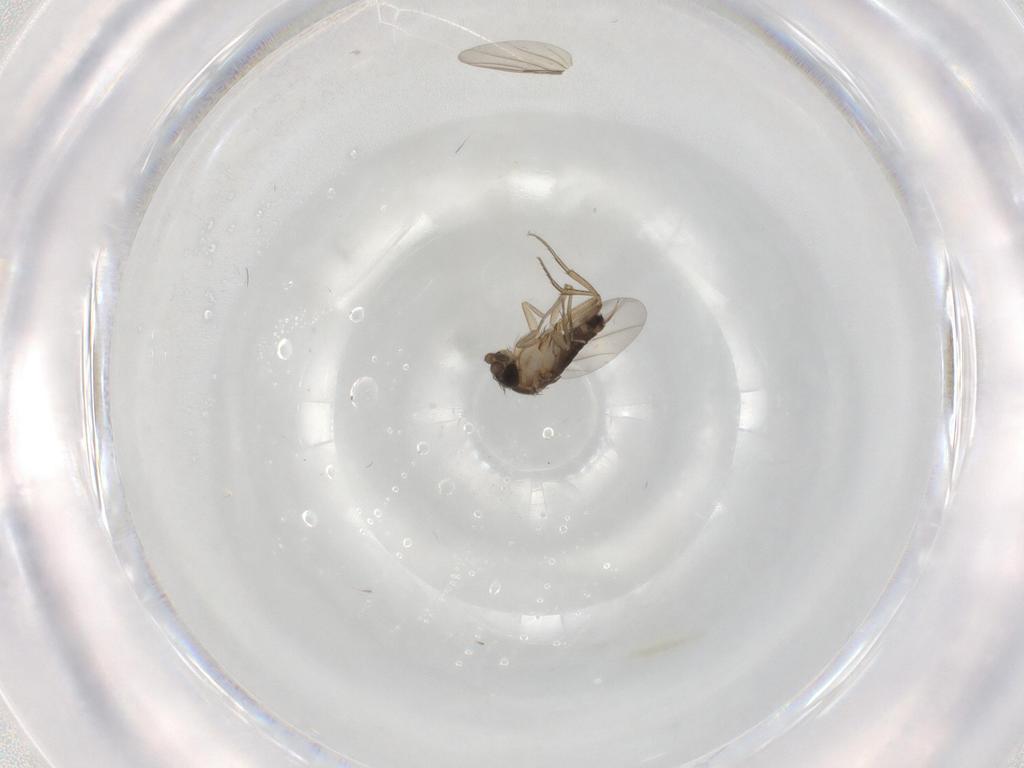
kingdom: Animalia
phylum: Arthropoda
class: Insecta
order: Diptera
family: Phoridae
